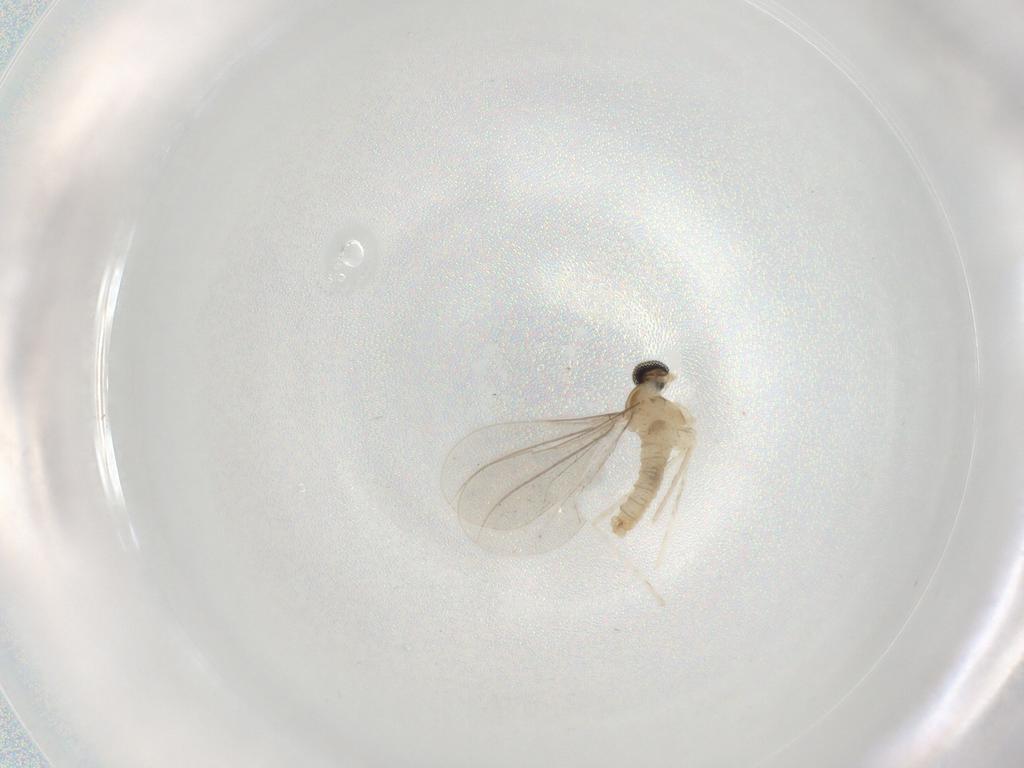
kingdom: Animalia
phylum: Arthropoda
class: Insecta
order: Diptera
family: Cecidomyiidae
